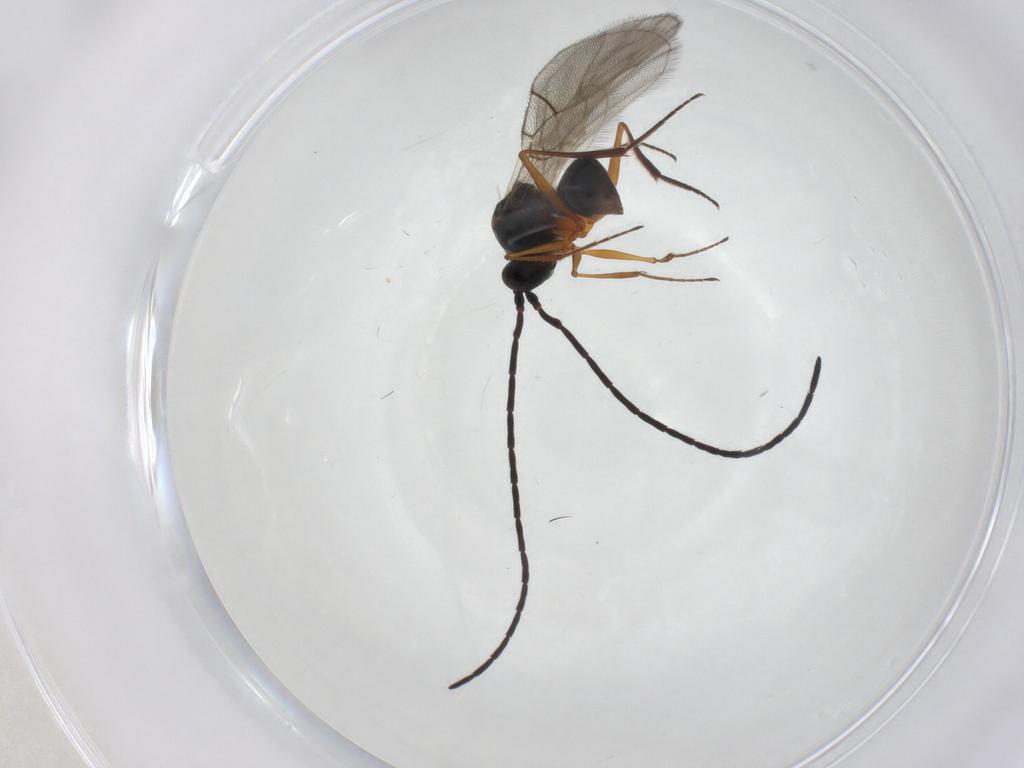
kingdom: Animalia
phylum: Arthropoda
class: Insecta
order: Hymenoptera
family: Figitidae
